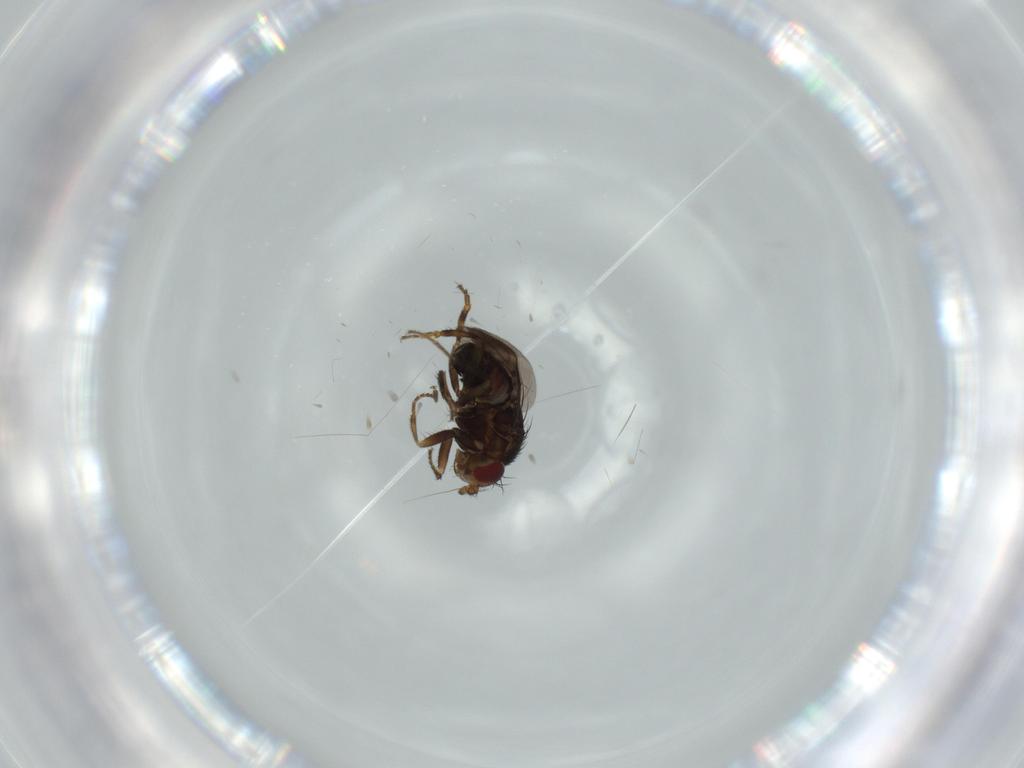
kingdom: Animalia
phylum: Arthropoda
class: Insecta
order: Diptera
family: Sphaeroceridae
